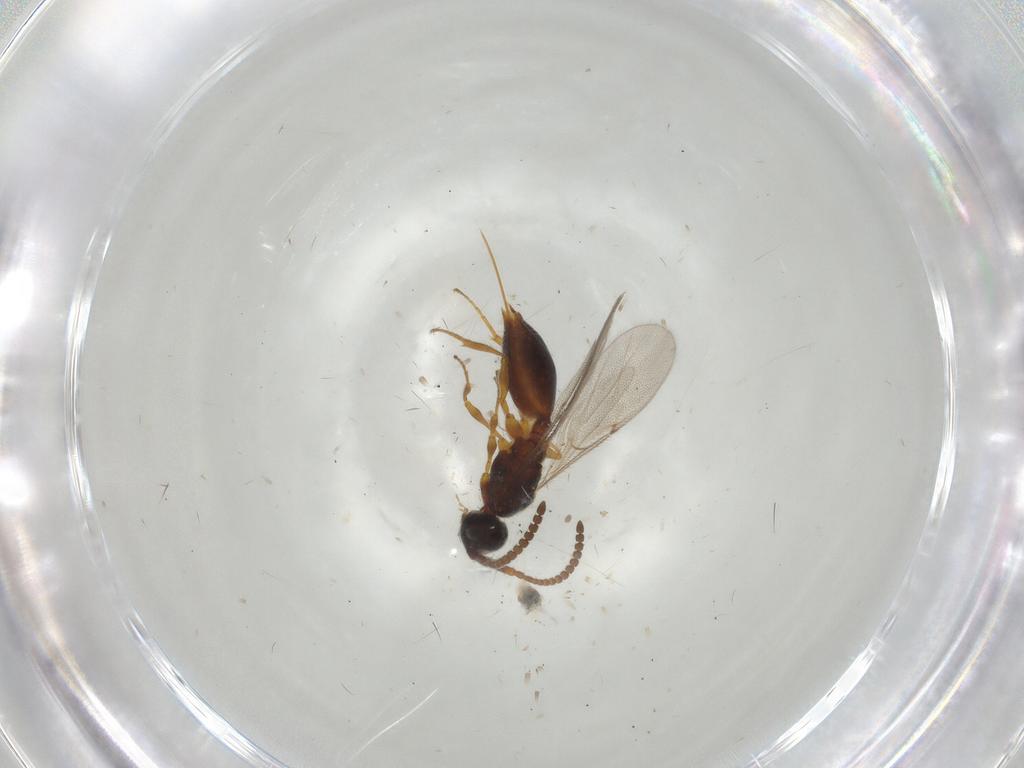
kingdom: Animalia
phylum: Arthropoda
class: Insecta
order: Hymenoptera
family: Diapriidae
